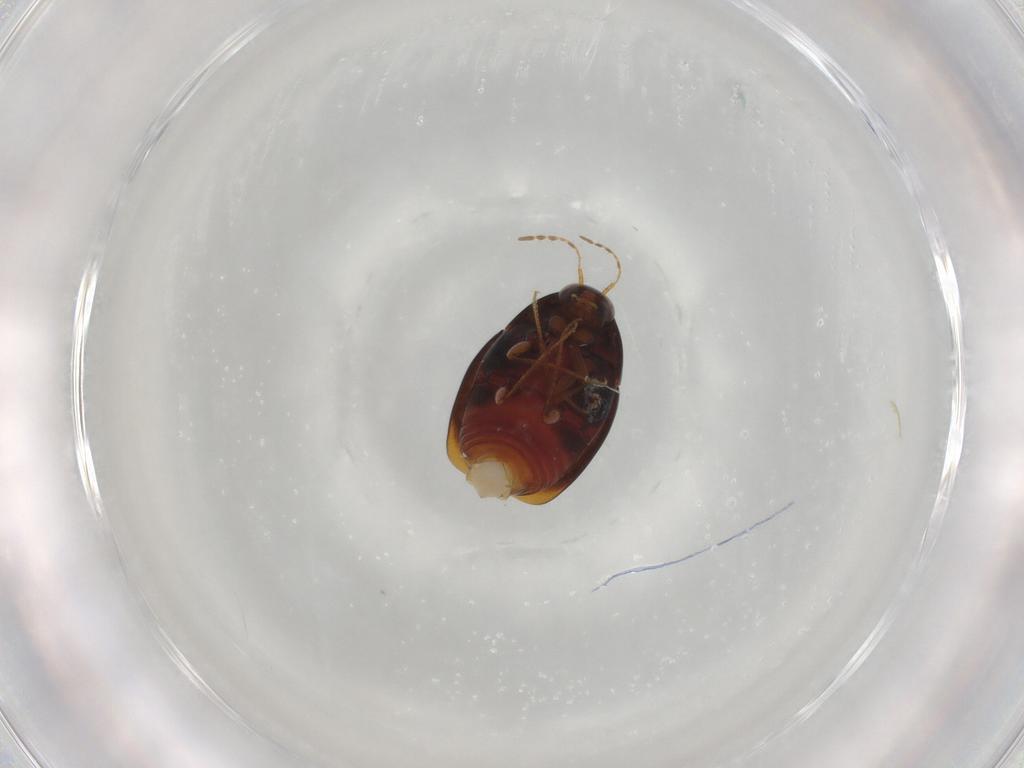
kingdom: Animalia
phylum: Arthropoda
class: Insecta
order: Coleoptera
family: Staphylinidae
